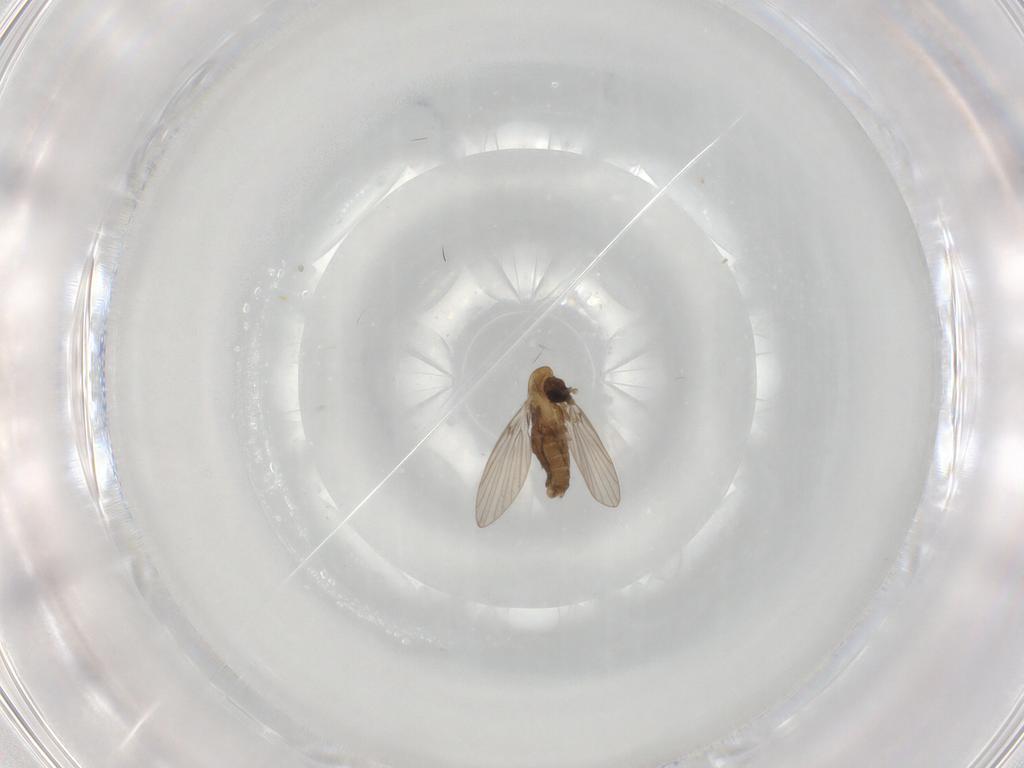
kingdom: Animalia
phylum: Arthropoda
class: Insecta
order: Diptera
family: Psychodidae
